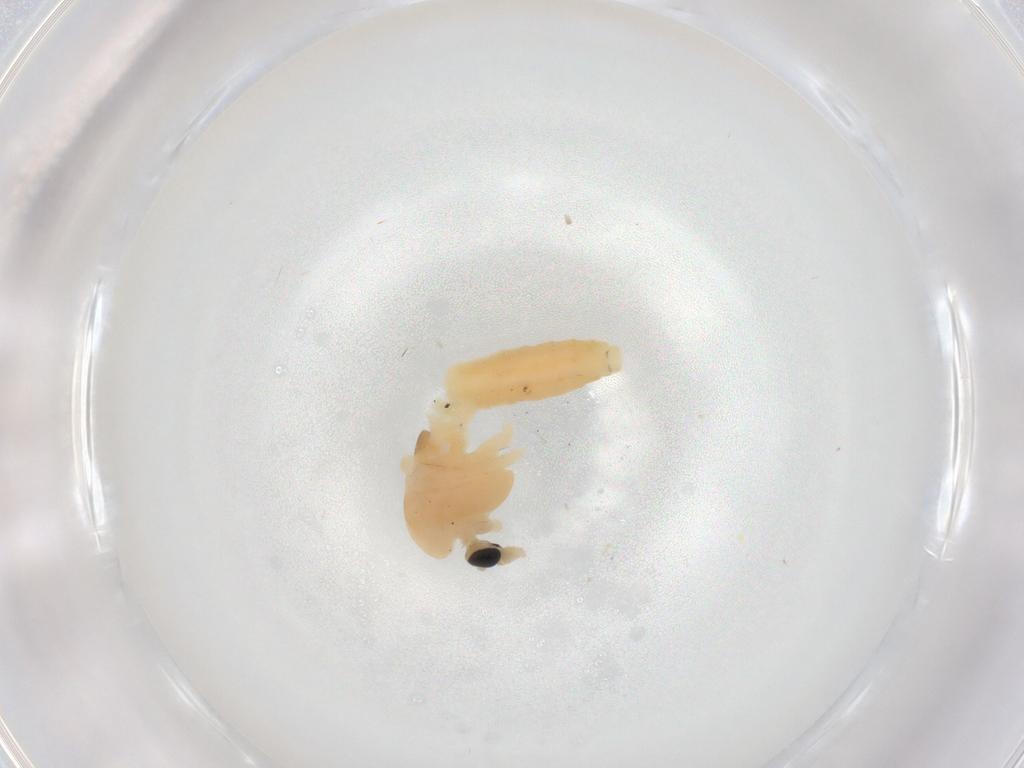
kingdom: Animalia
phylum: Arthropoda
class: Insecta
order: Diptera
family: Chironomidae
